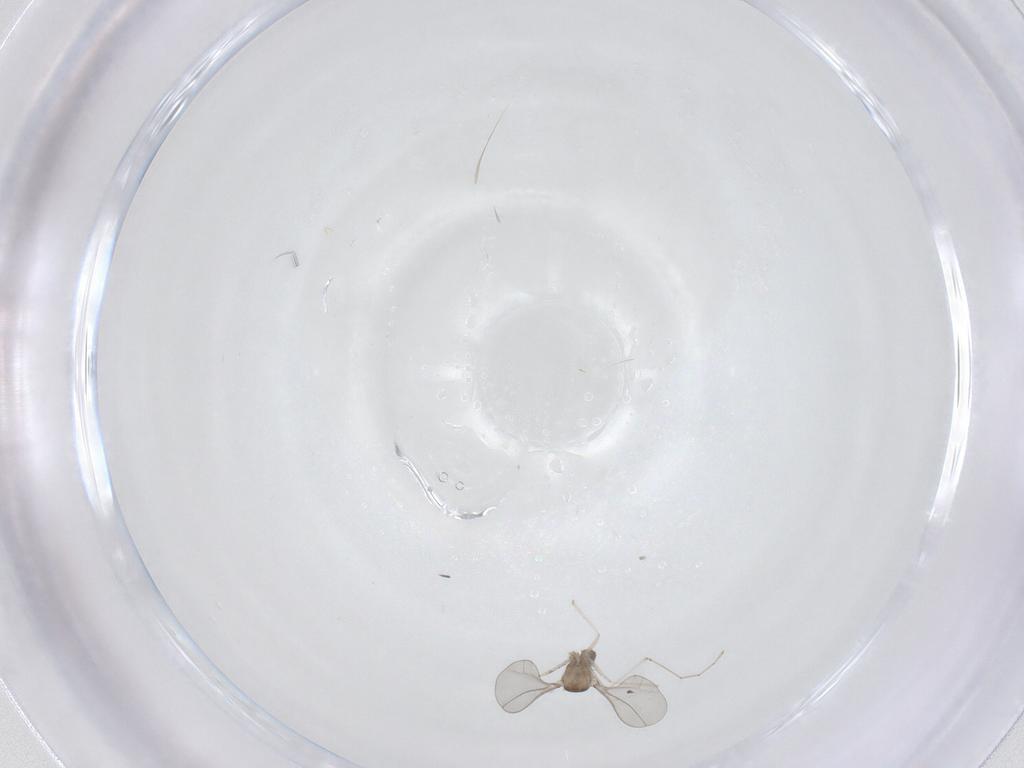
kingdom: Animalia
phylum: Arthropoda
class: Insecta
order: Diptera
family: Cecidomyiidae
